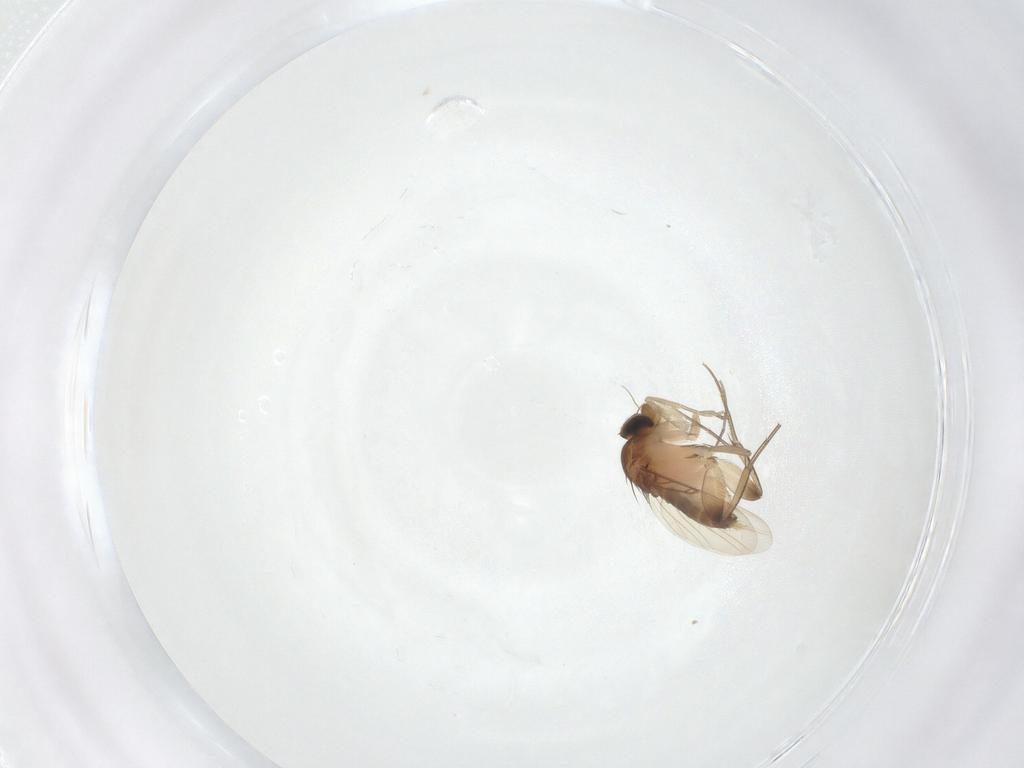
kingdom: Animalia
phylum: Arthropoda
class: Insecta
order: Diptera
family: Phoridae
